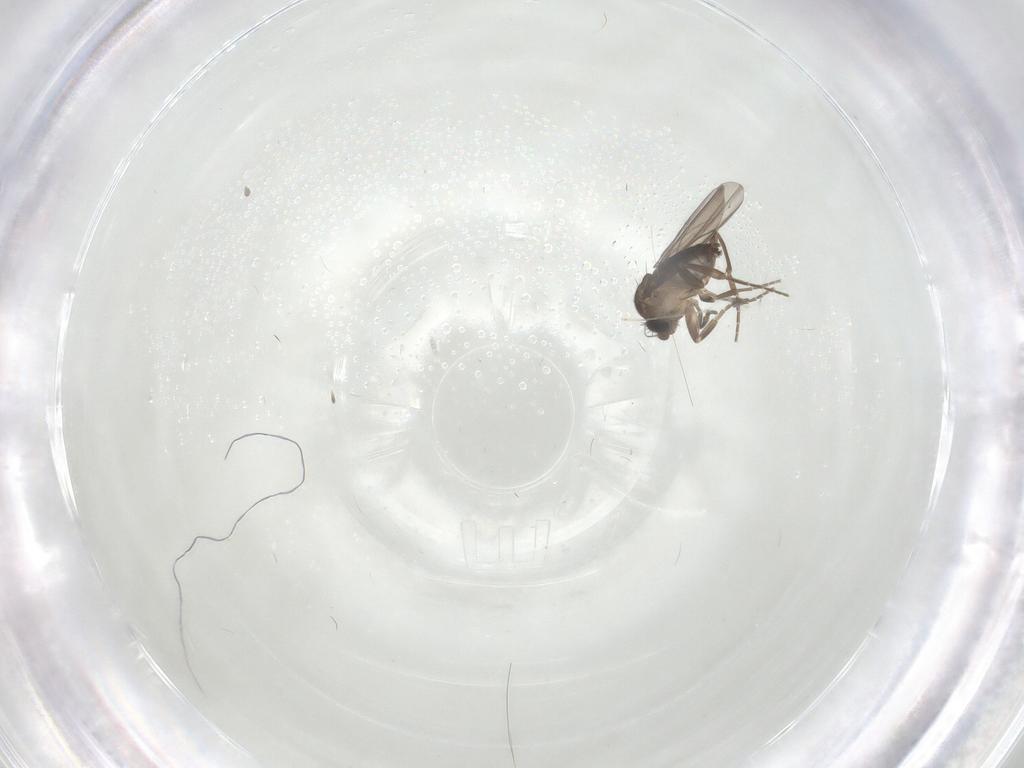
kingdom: Animalia
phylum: Arthropoda
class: Insecta
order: Diptera
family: Phoridae
